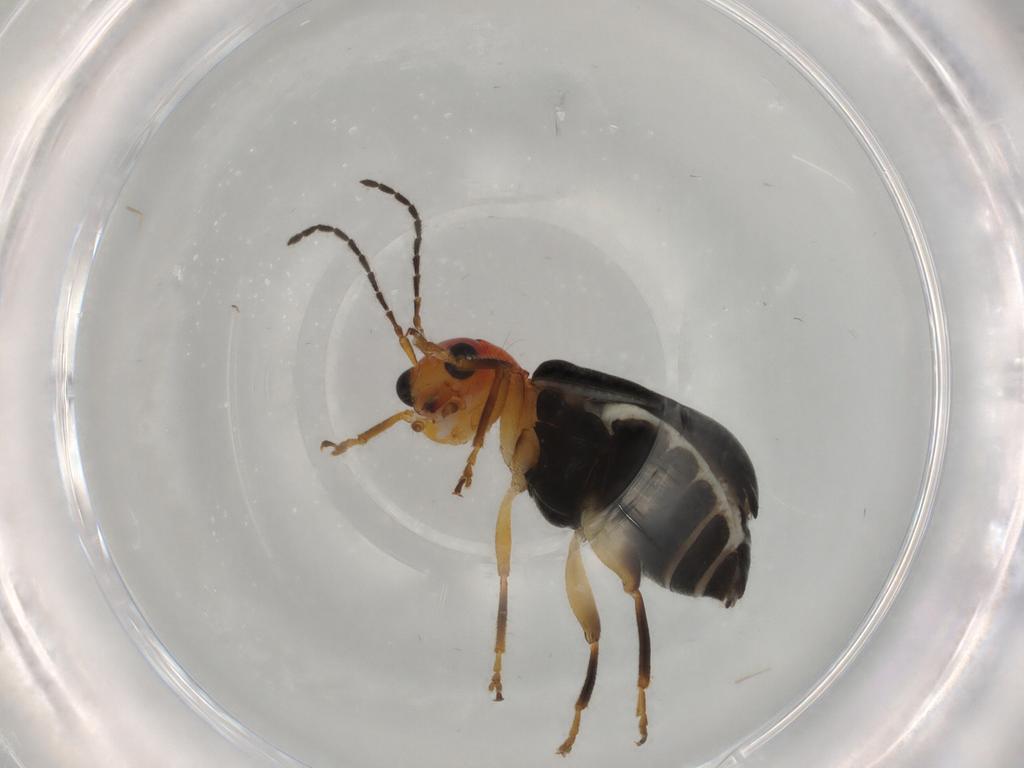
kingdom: Animalia
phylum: Arthropoda
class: Insecta
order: Coleoptera
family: Chrysomelidae
